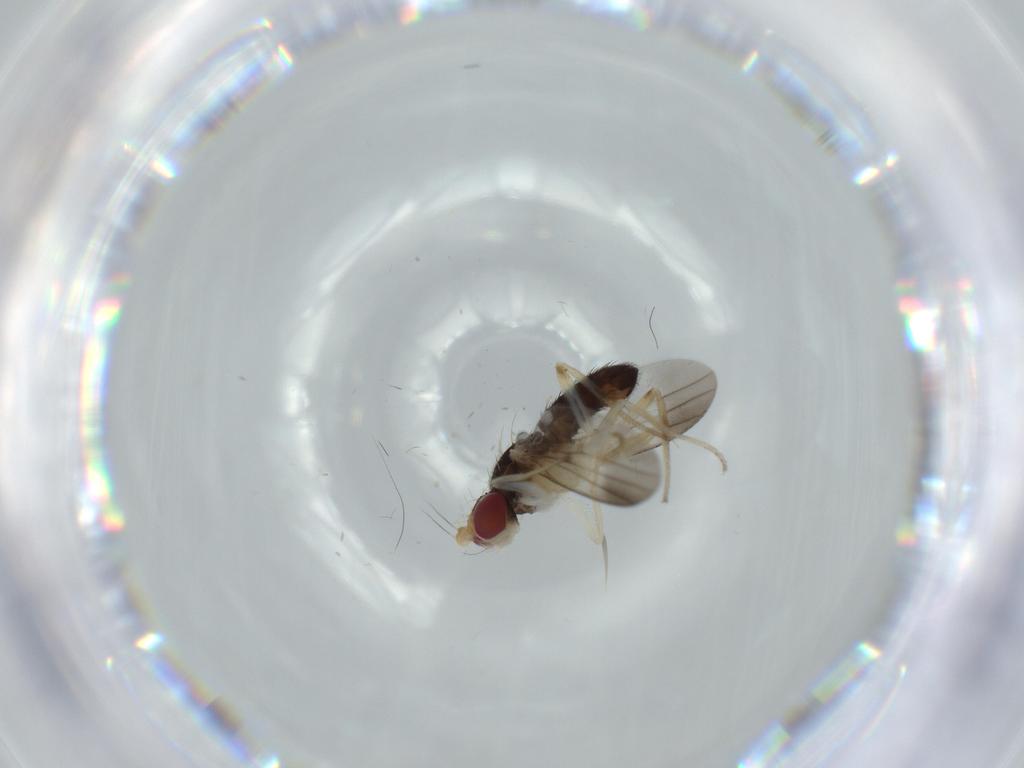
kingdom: Animalia
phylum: Arthropoda
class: Insecta
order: Diptera
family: Clusiidae
